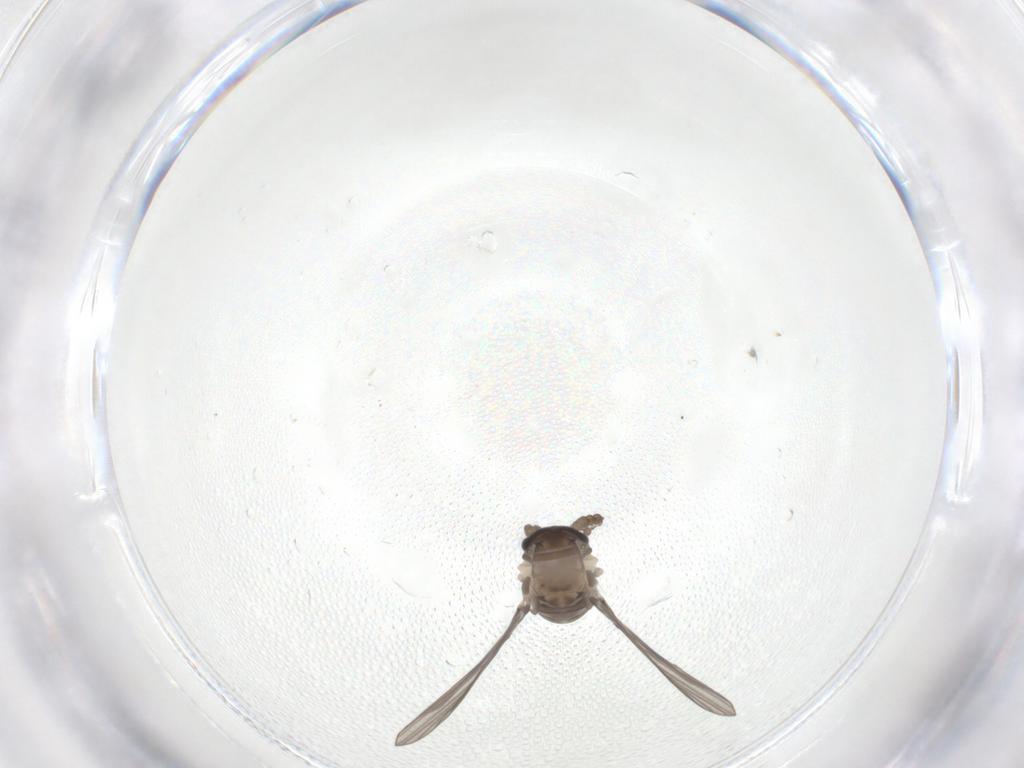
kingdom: Animalia
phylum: Arthropoda
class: Insecta
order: Diptera
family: Psychodidae
